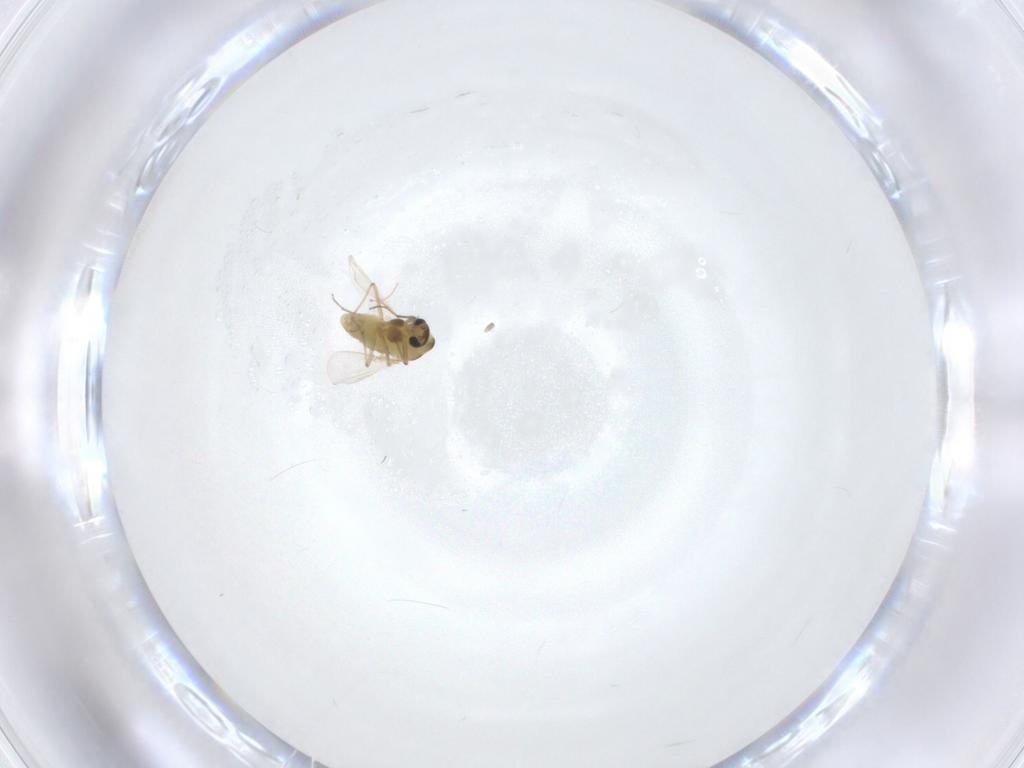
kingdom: Animalia
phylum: Arthropoda
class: Insecta
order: Diptera
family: Chironomidae
